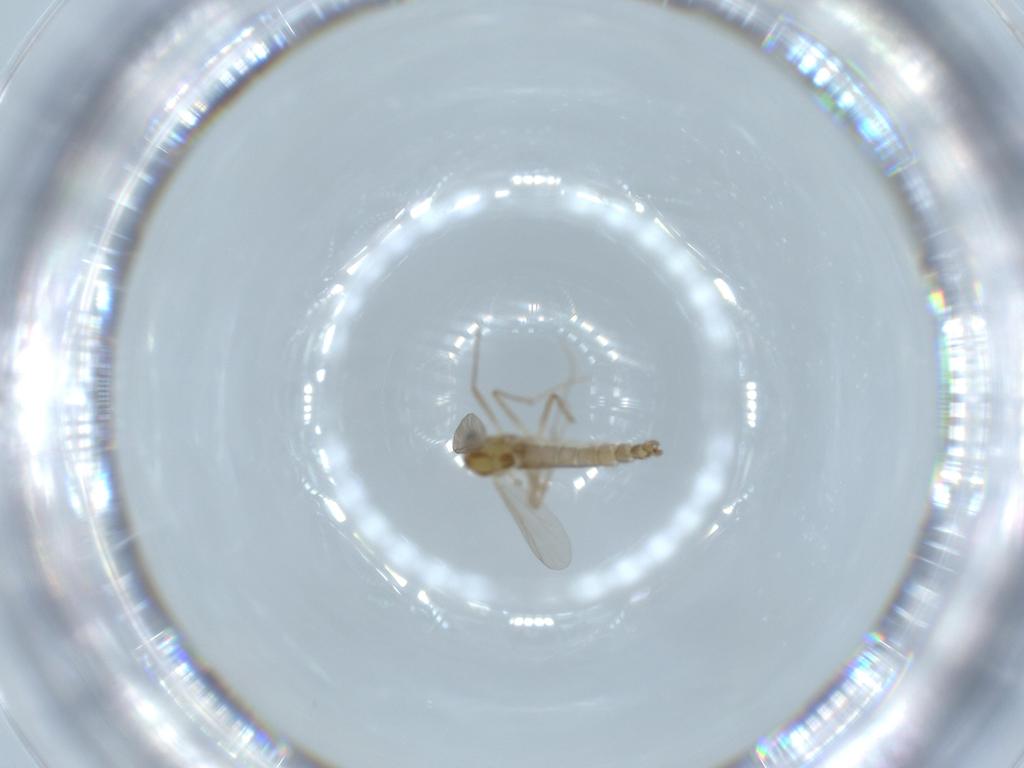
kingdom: Animalia
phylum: Arthropoda
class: Insecta
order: Diptera
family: Chironomidae
